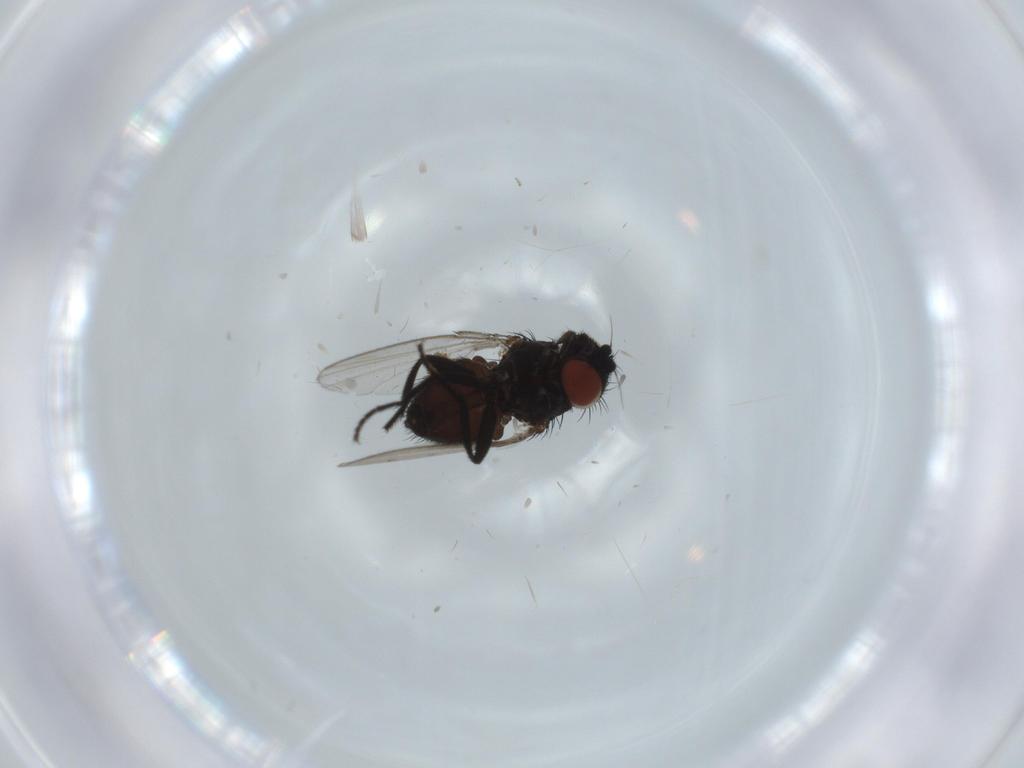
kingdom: Animalia
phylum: Arthropoda
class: Insecta
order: Diptera
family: Milichiidae
